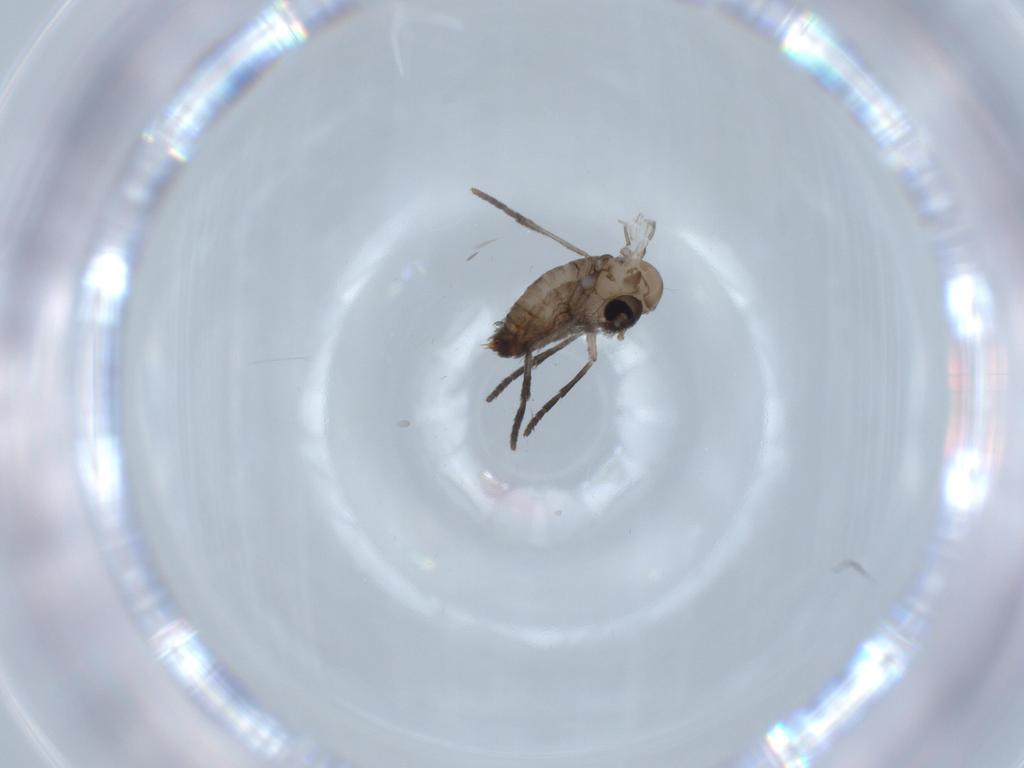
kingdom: Animalia
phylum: Arthropoda
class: Insecta
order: Diptera
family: Psychodidae
